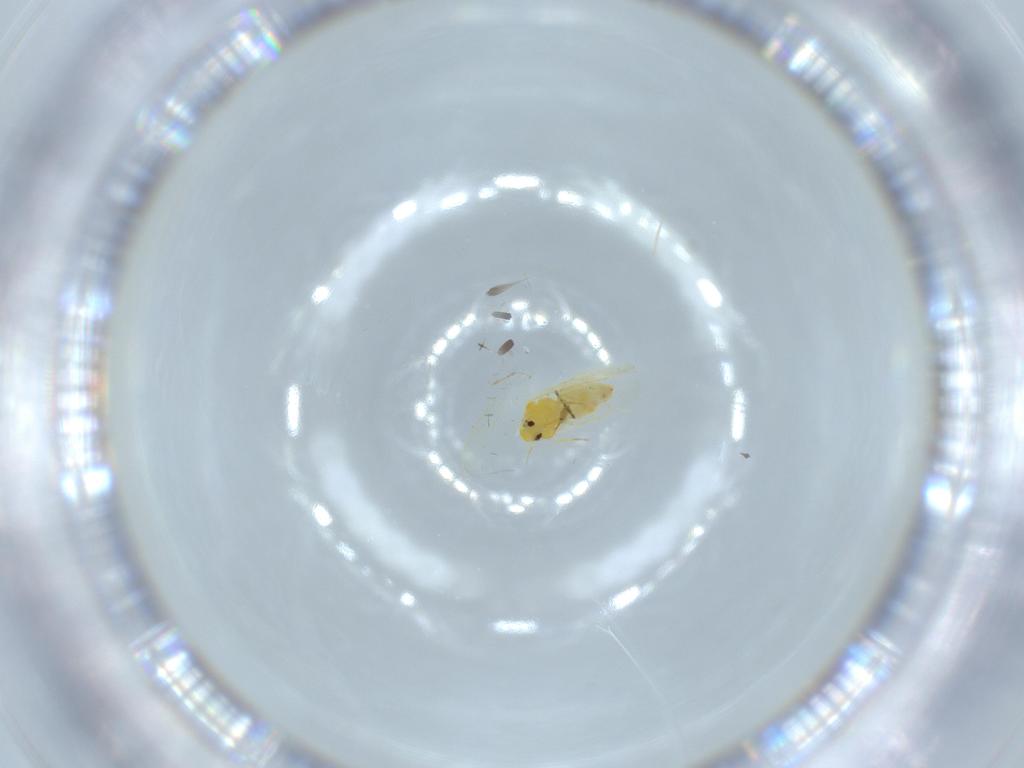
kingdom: Animalia
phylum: Arthropoda
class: Insecta
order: Hemiptera
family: Aleyrodidae
